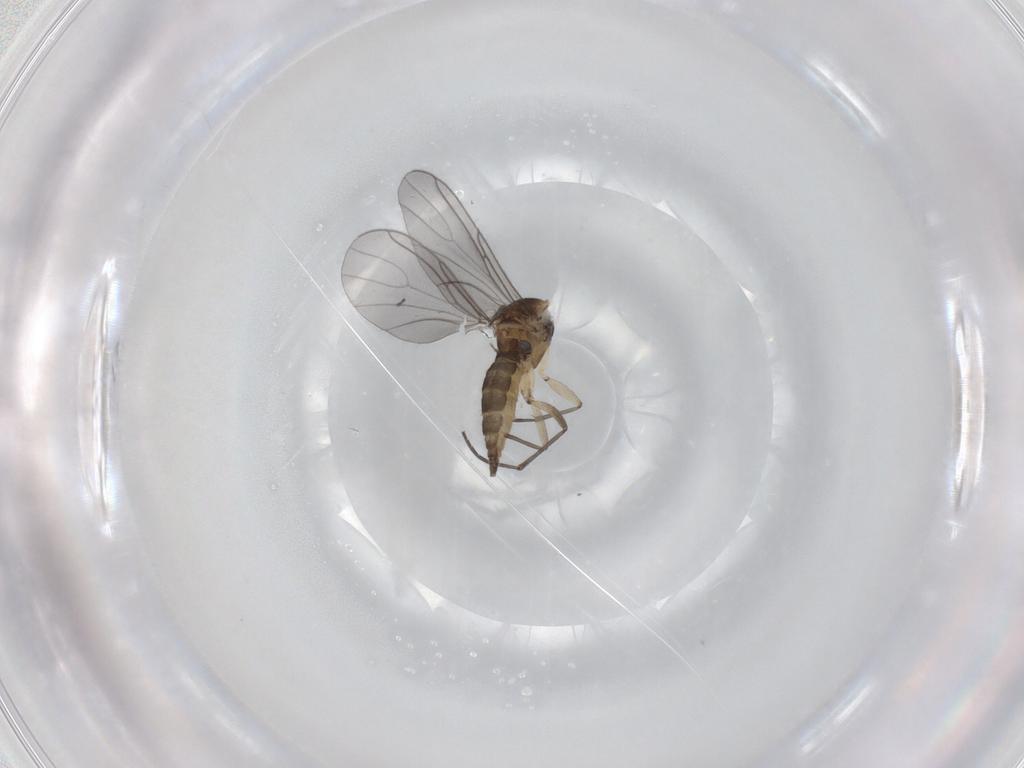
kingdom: Animalia
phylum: Arthropoda
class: Insecta
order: Diptera
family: Sciaridae
